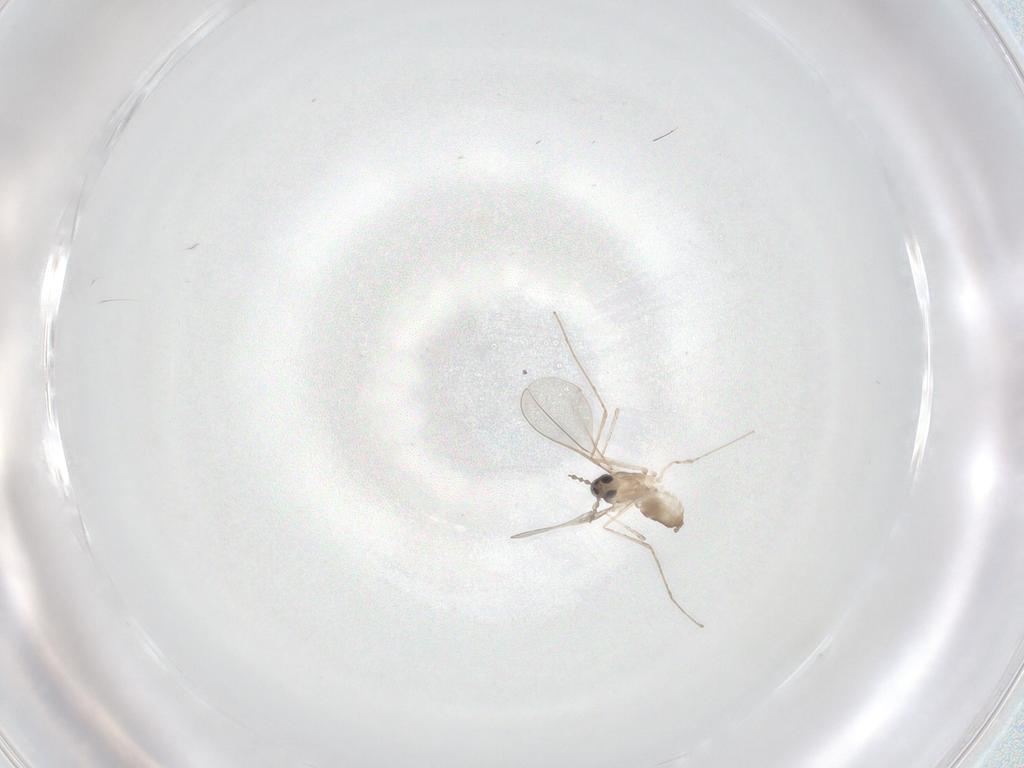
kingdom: Animalia
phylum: Arthropoda
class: Insecta
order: Diptera
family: Cecidomyiidae
